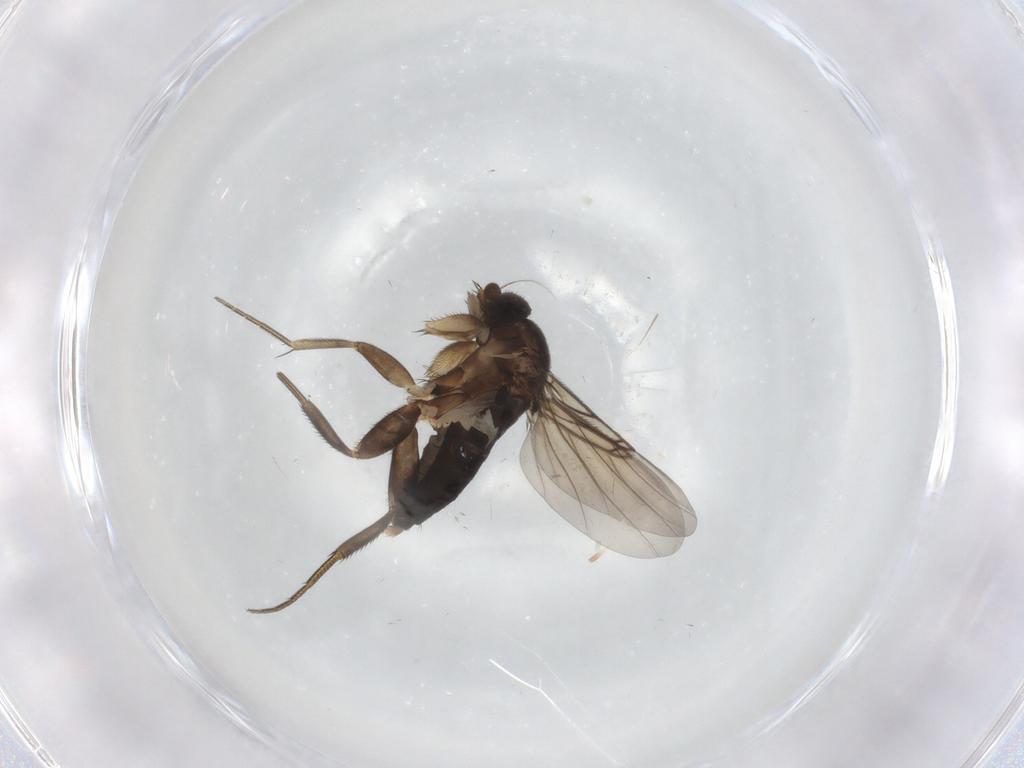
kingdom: Animalia
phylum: Arthropoda
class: Insecta
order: Diptera
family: Phoridae
